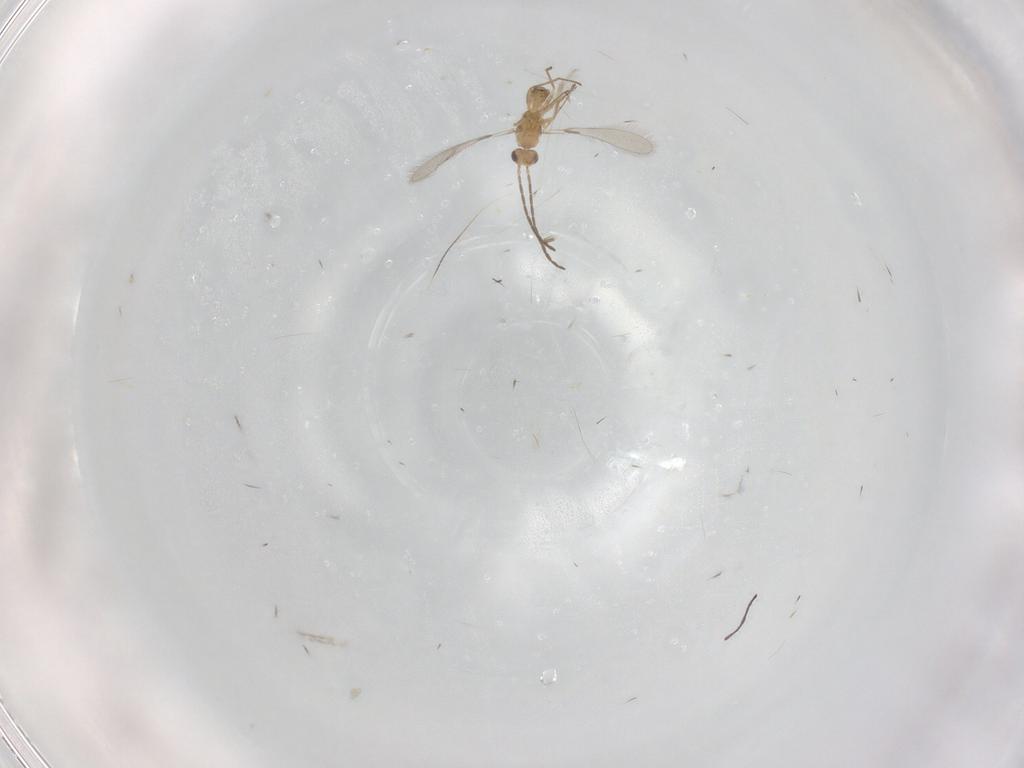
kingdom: Animalia
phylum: Arthropoda
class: Insecta
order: Hymenoptera
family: Mymaridae
